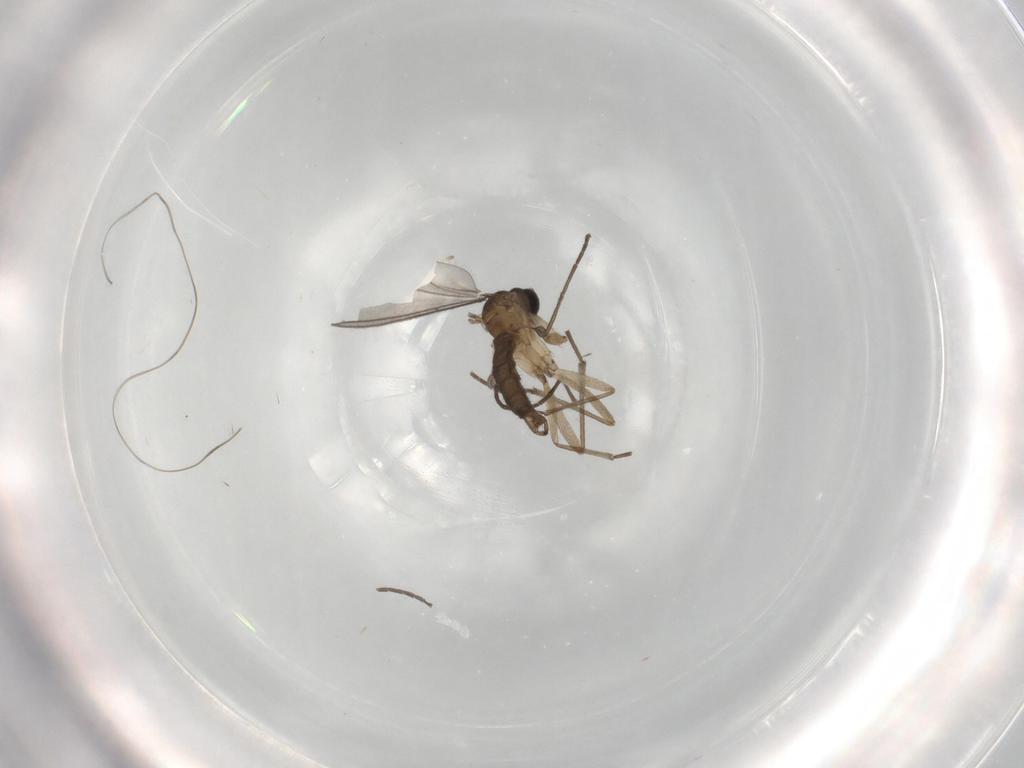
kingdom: Animalia
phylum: Arthropoda
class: Insecta
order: Diptera
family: Sciaridae
